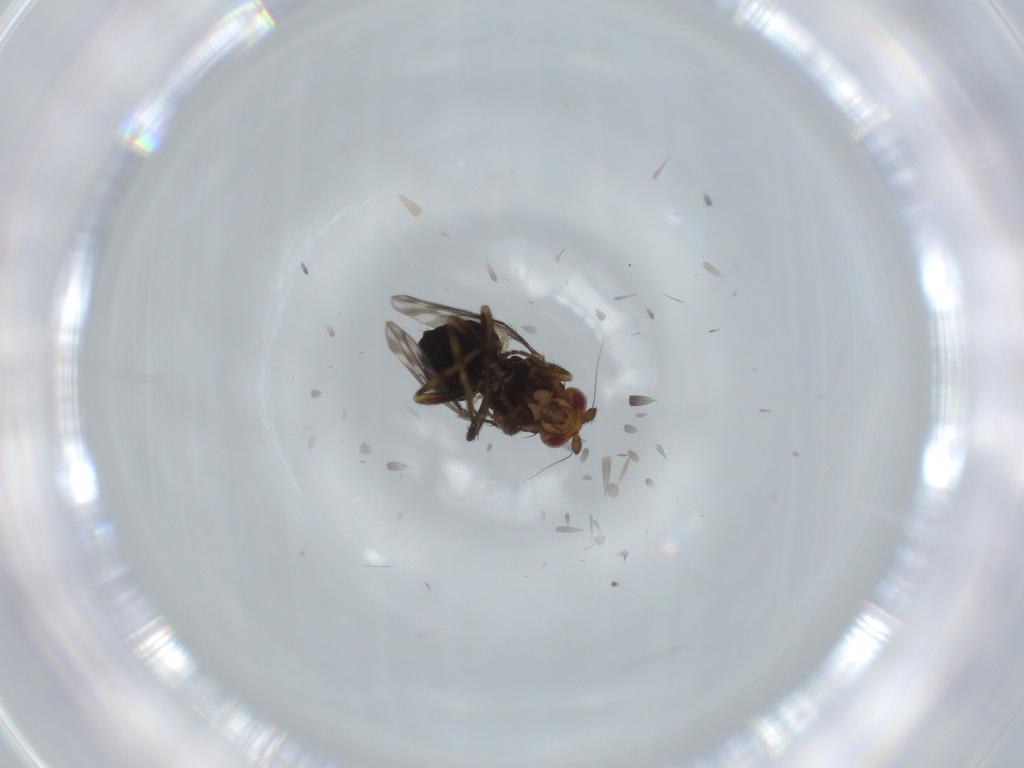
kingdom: Animalia
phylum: Arthropoda
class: Insecta
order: Diptera
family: Sphaeroceridae
